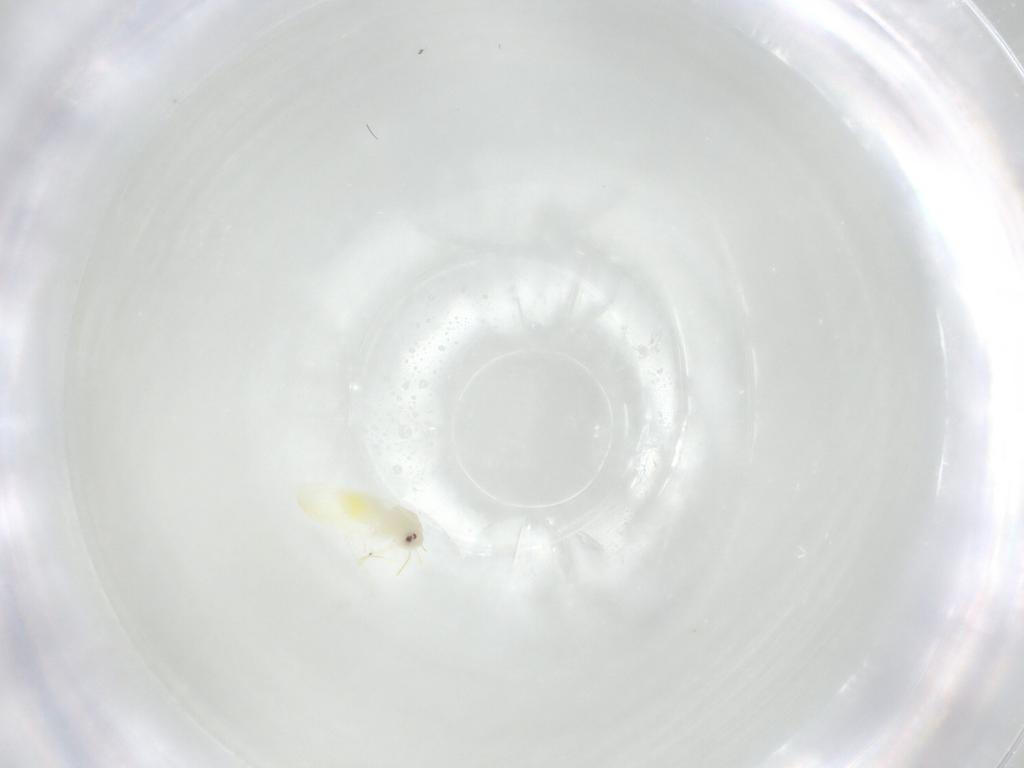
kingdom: Animalia
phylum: Arthropoda
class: Insecta
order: Hemiptera
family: Aleyrodidae
